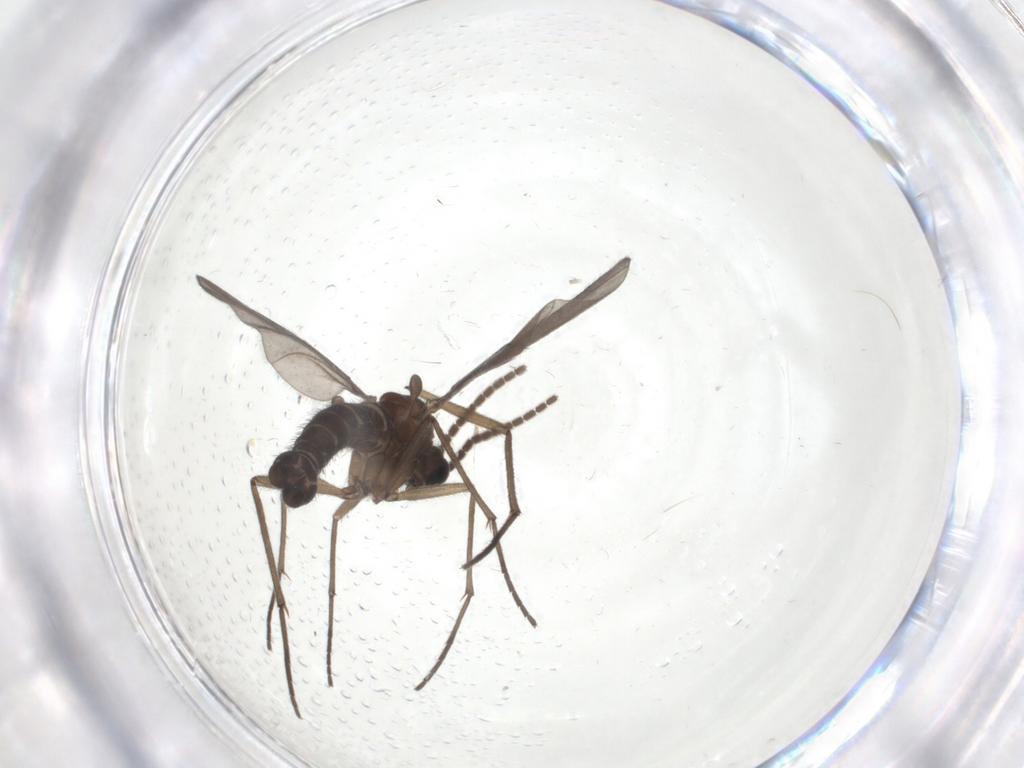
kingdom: Animalia
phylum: Arthropoda
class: Insecta
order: Diptera
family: Sciaridae
